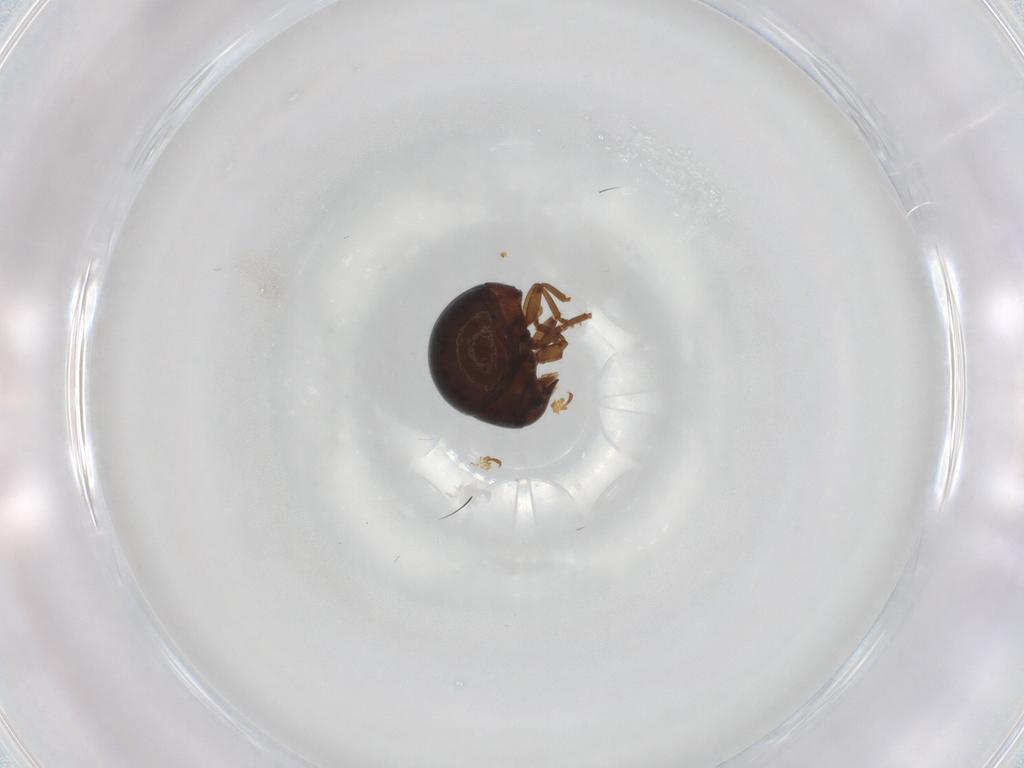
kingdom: Animalia
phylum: Arthropoda
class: Insecta
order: Coleoptera
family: Anthribidae
